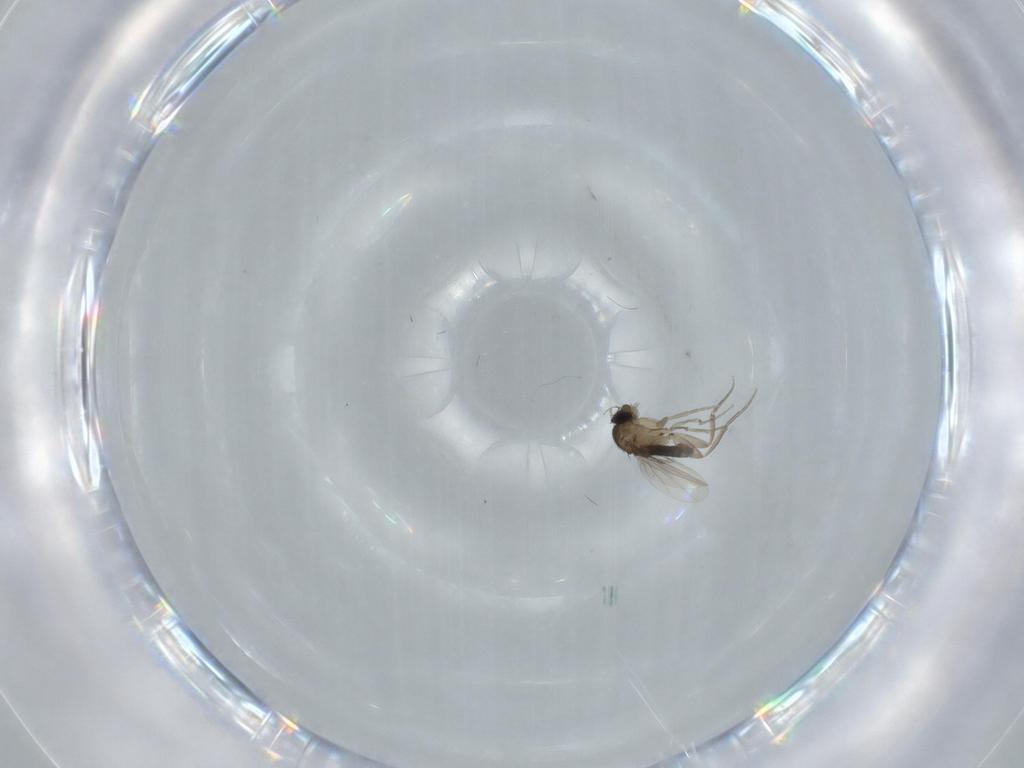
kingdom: Animalia
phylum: Arthropoda
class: Insecta
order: Diptera
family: Phoridae
